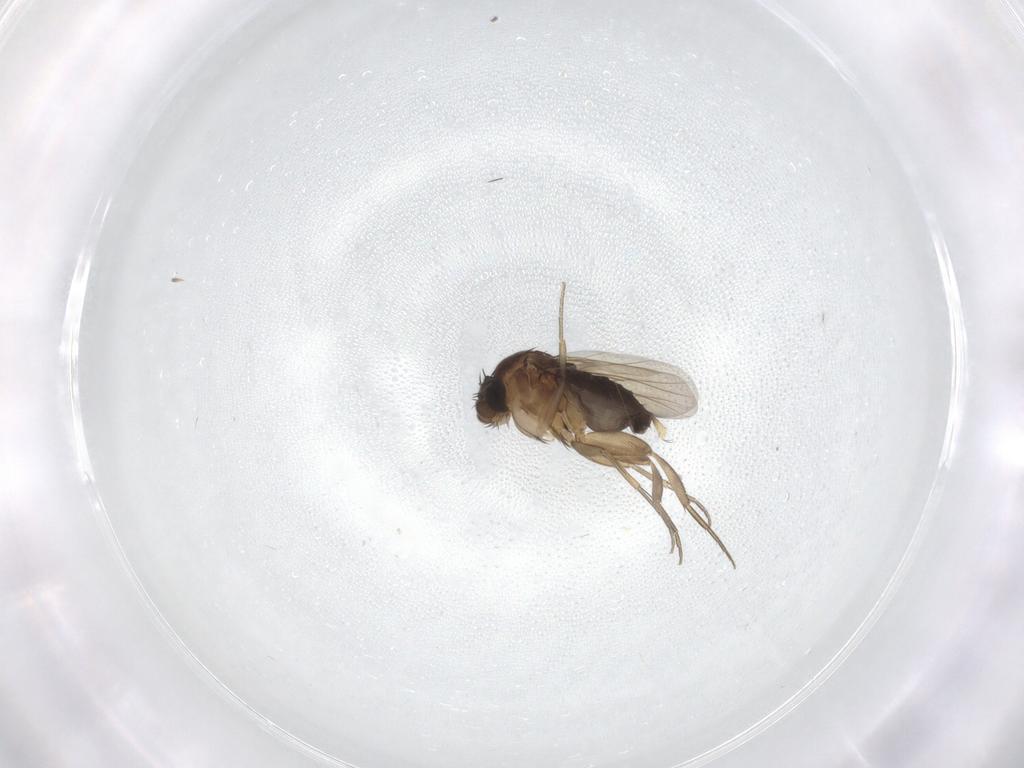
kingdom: Animalia
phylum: Arthropoda
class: Insecta
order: Diptera
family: Phoridae
